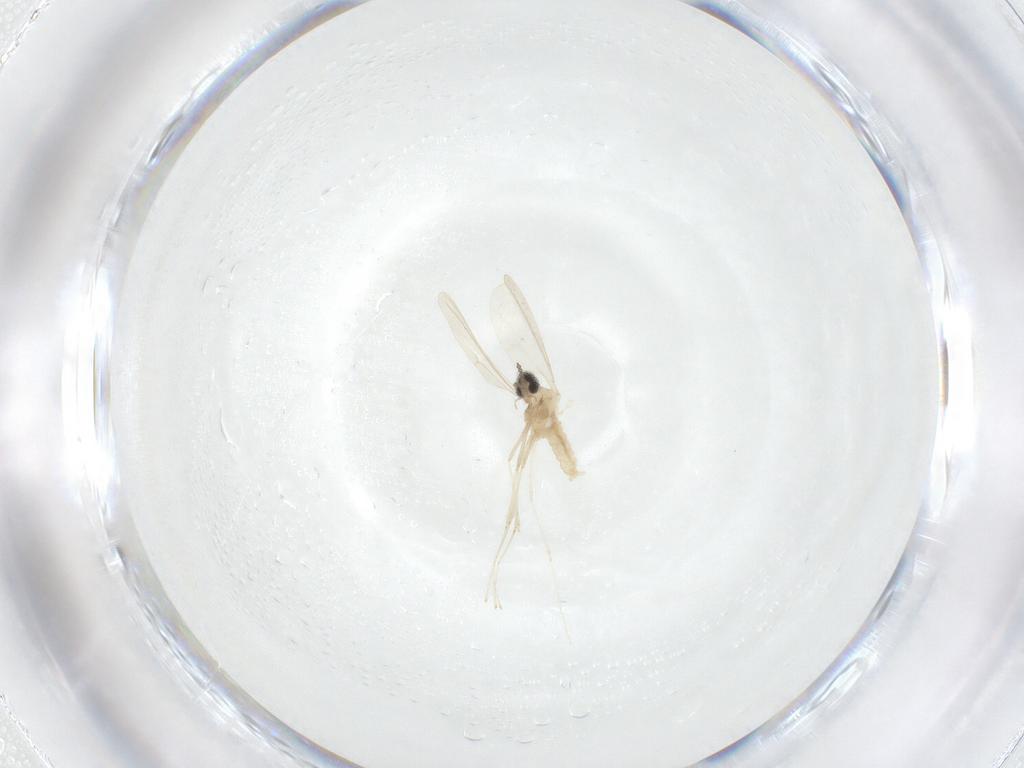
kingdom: Animalia
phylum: Arthropoda
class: Insecta
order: Diptera
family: Cecidomyiidae
